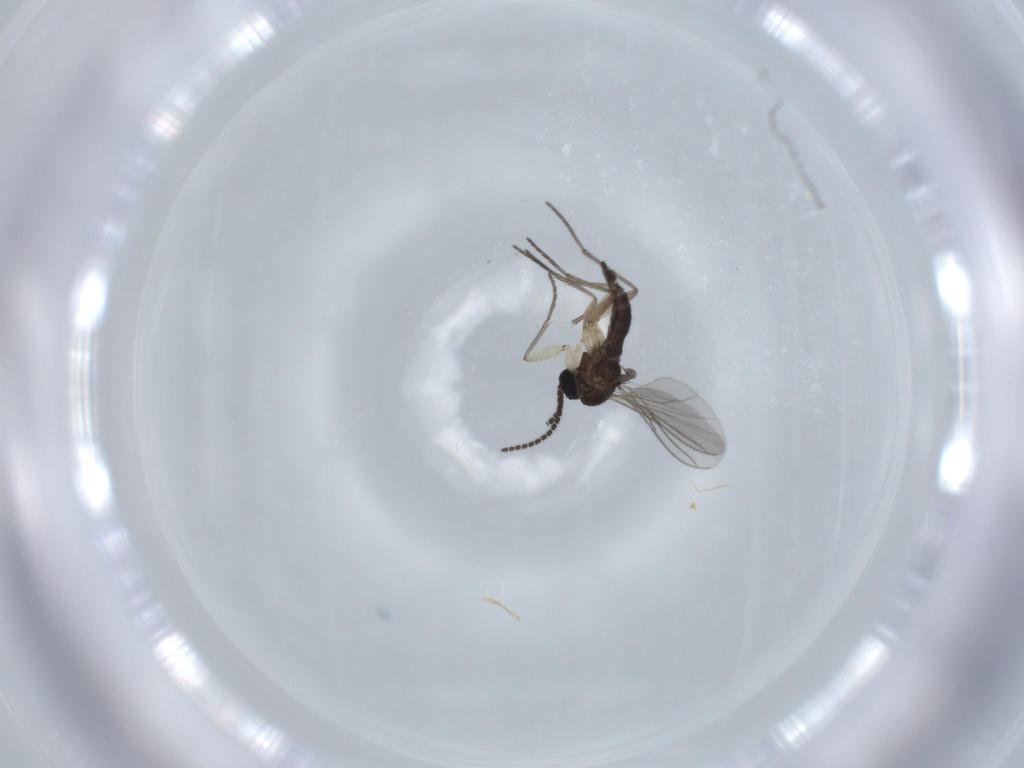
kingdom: Animalia
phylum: Arthropoda
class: Insecta
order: Diptera
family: Sciaridae
